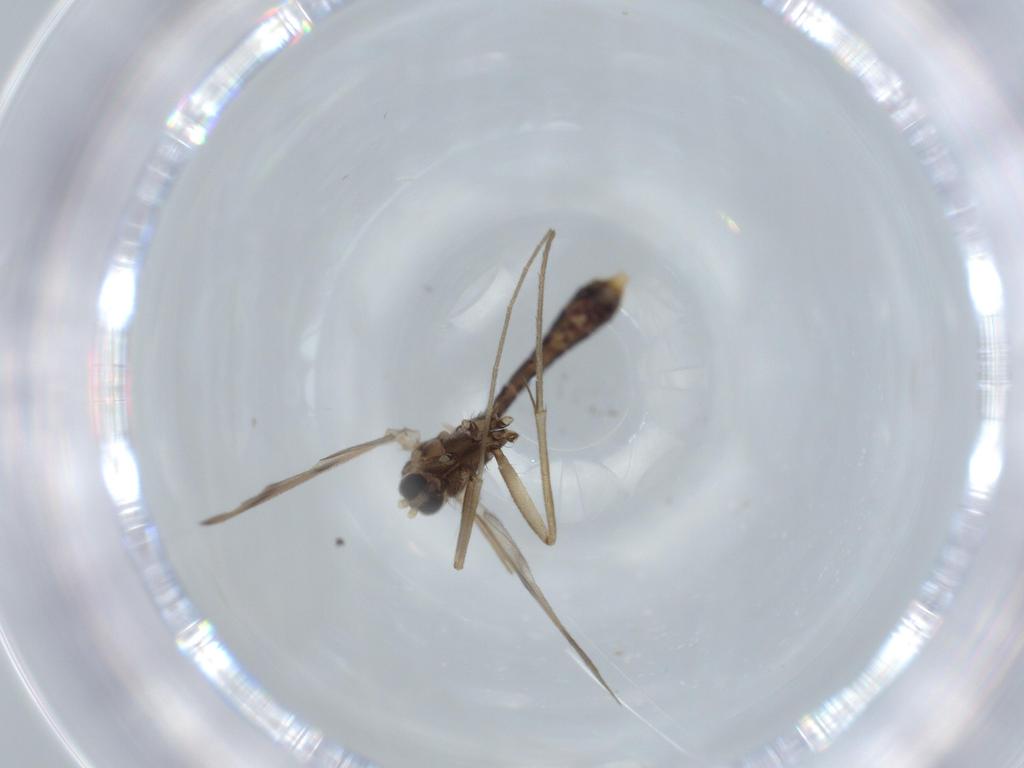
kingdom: Animalia
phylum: Arthropoda
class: Insecta
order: Diptera
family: Muscidae
